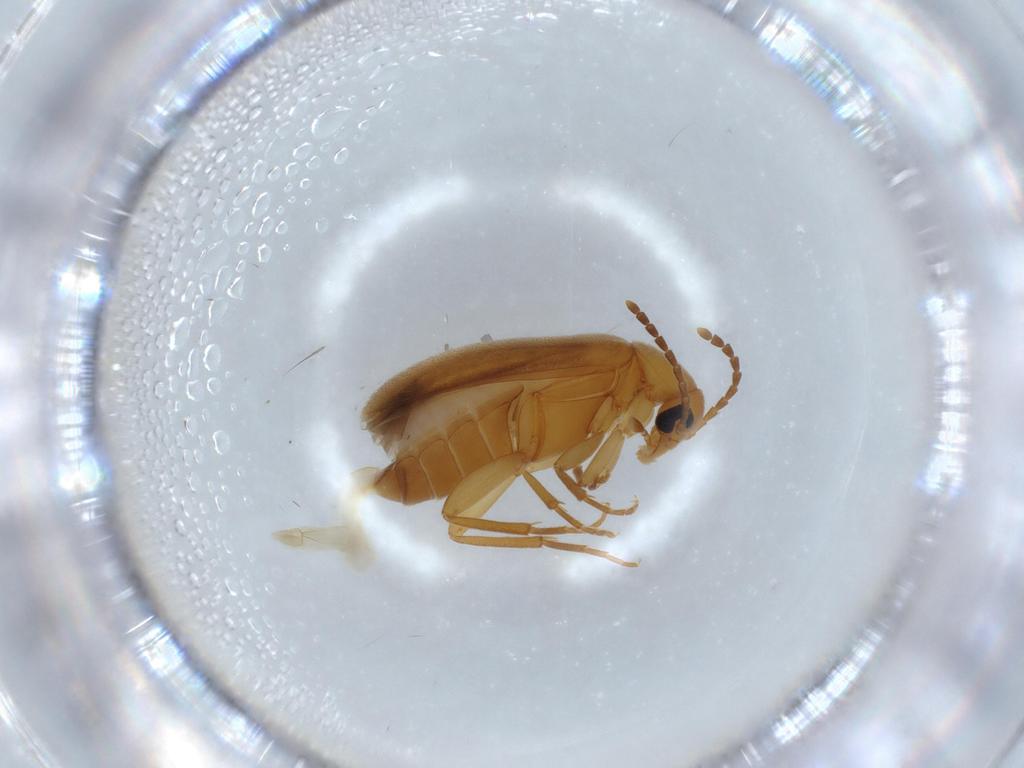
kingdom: Animalia
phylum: Arthropoda
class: Insecta
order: Coleoptera
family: Scraptiidae
